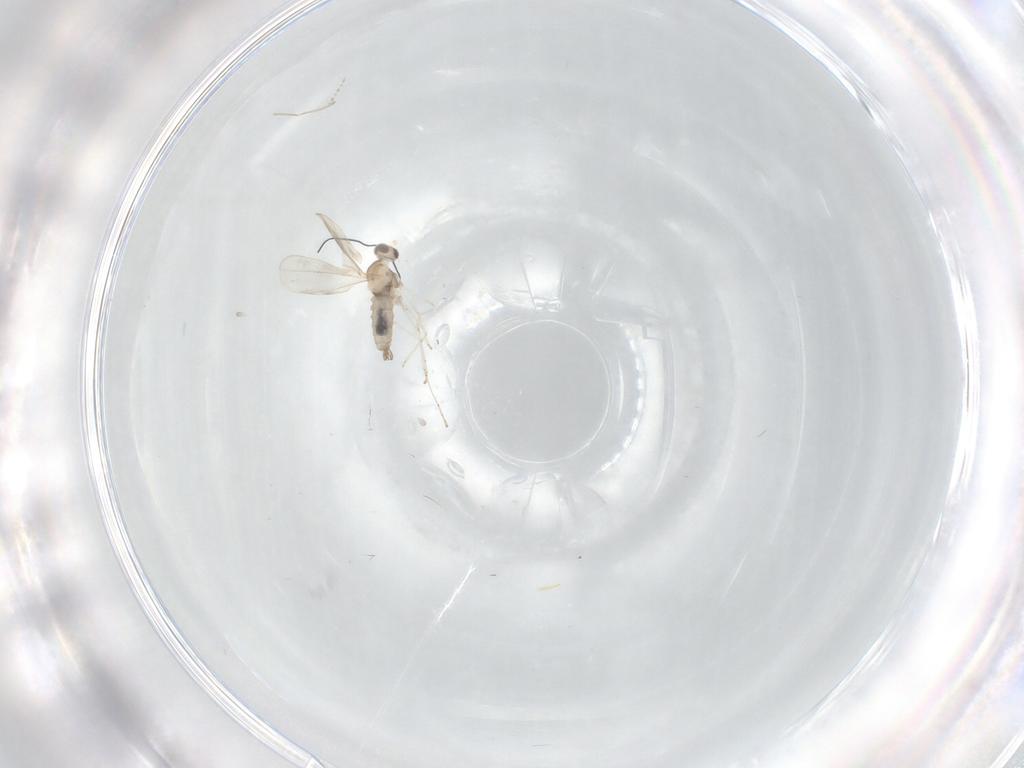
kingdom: Animalia
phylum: Arthropoda
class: Insecta
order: Diptera
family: Cecidomyiidae
